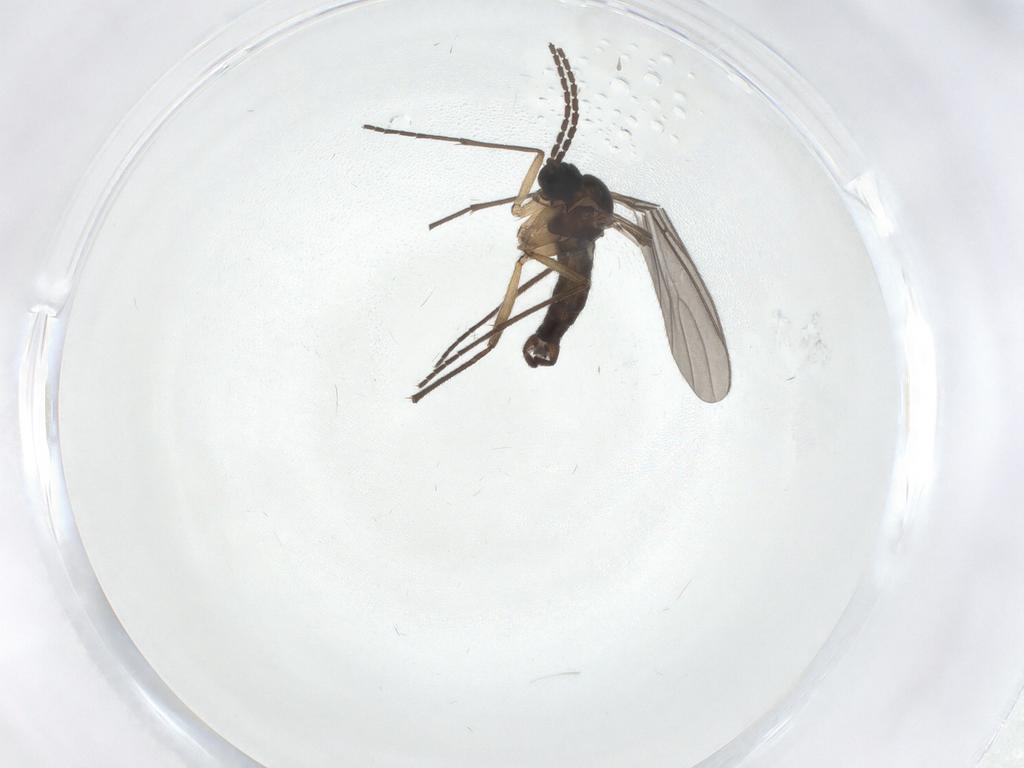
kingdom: Animalia
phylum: Arthropoda
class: Insecta
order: Diptera
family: Sciaridae
